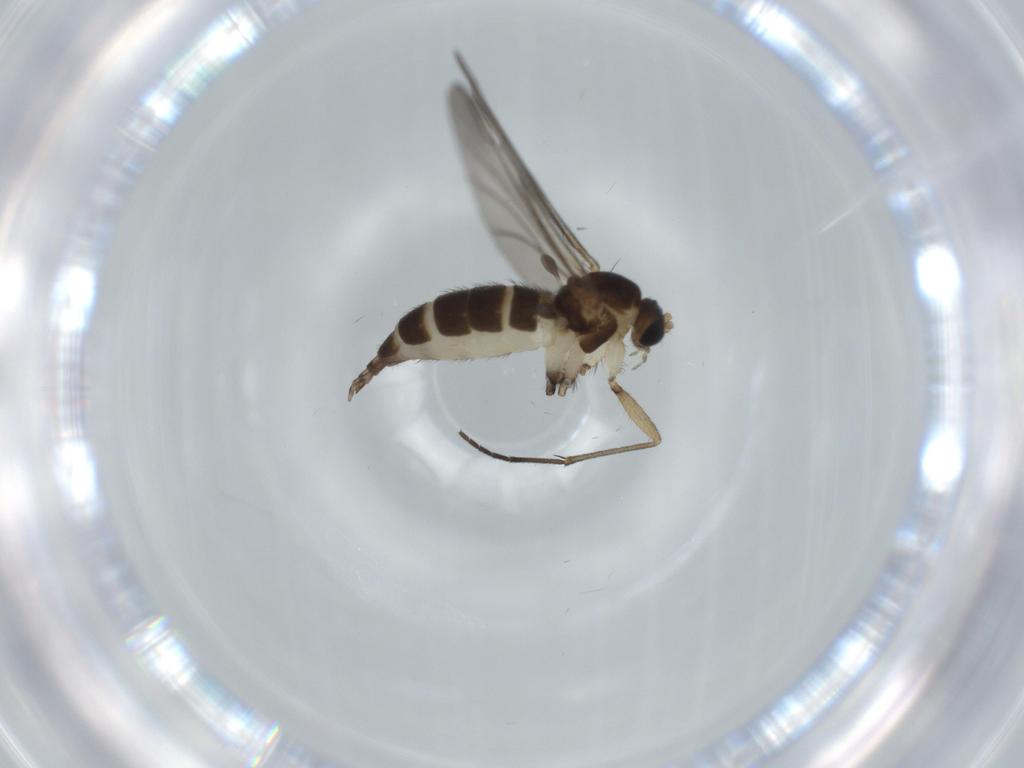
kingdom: Animalia
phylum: Arthropoda
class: Insecta
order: Diptera
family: Sciaridae
